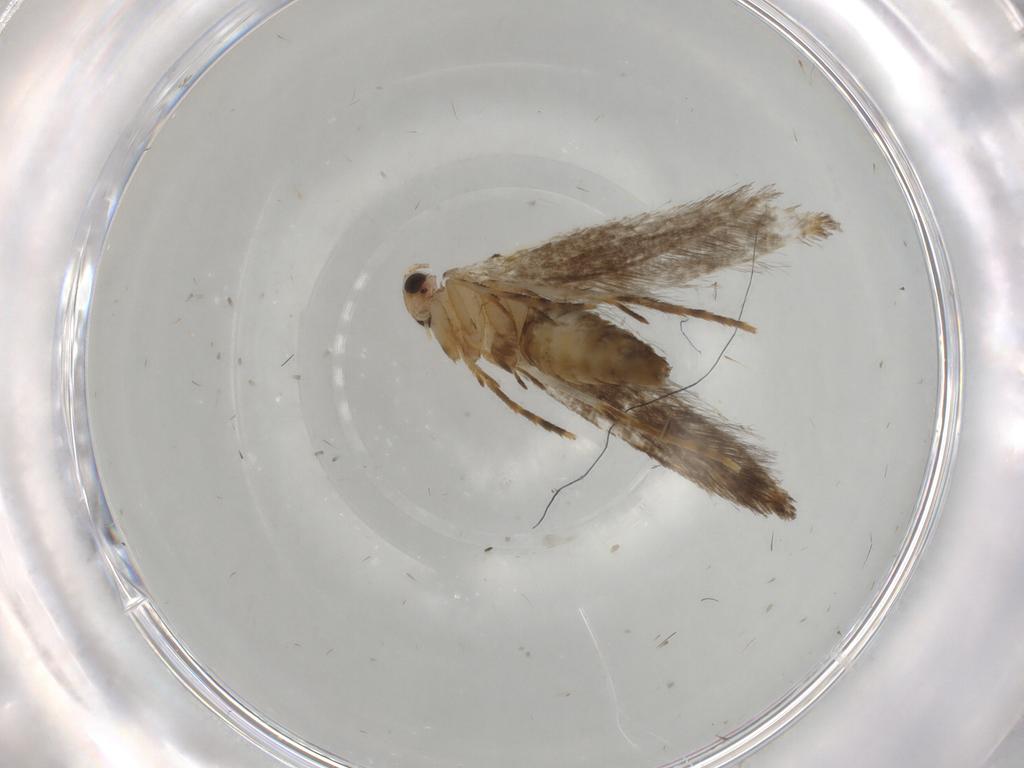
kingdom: Animalia
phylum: Arthropoda
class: Insecta
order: Lepidoptera
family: Tineidae
